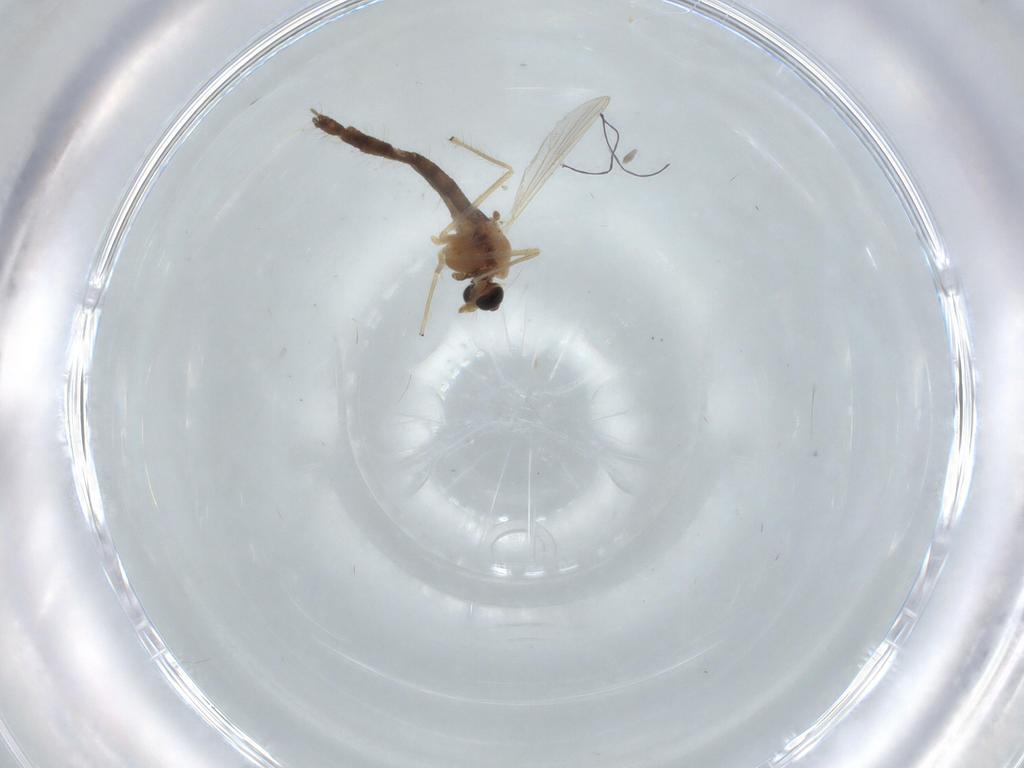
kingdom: Animalia
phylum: Arthropoda
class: Insecta
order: Diptera
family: Chironomidae
